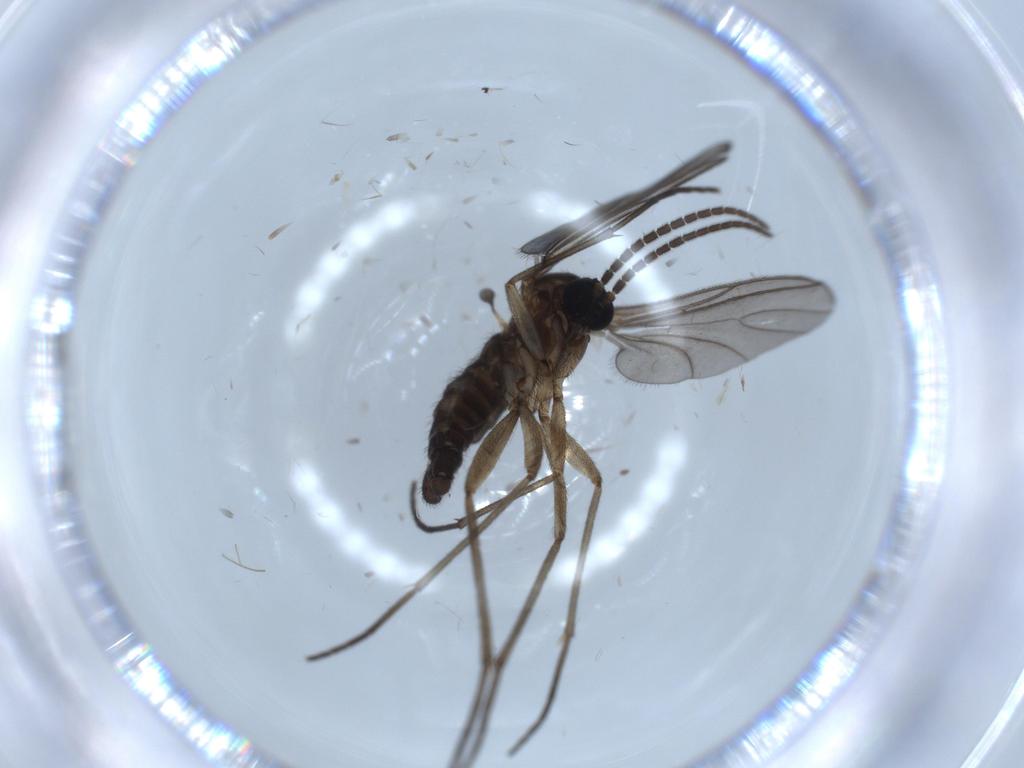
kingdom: Animalia
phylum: Arthropoda
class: Insecta
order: Diptera
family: Sciaridae
